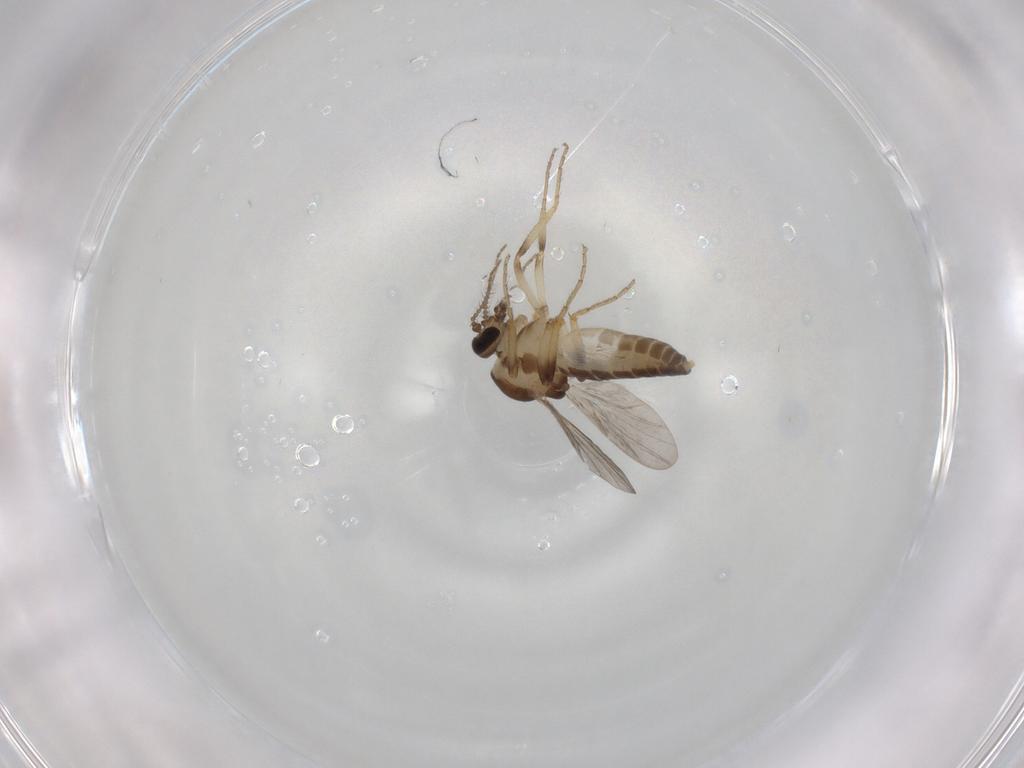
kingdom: Animalia
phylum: Arthropoda
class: Insecta
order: Diptera
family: Ceratopogonidae
